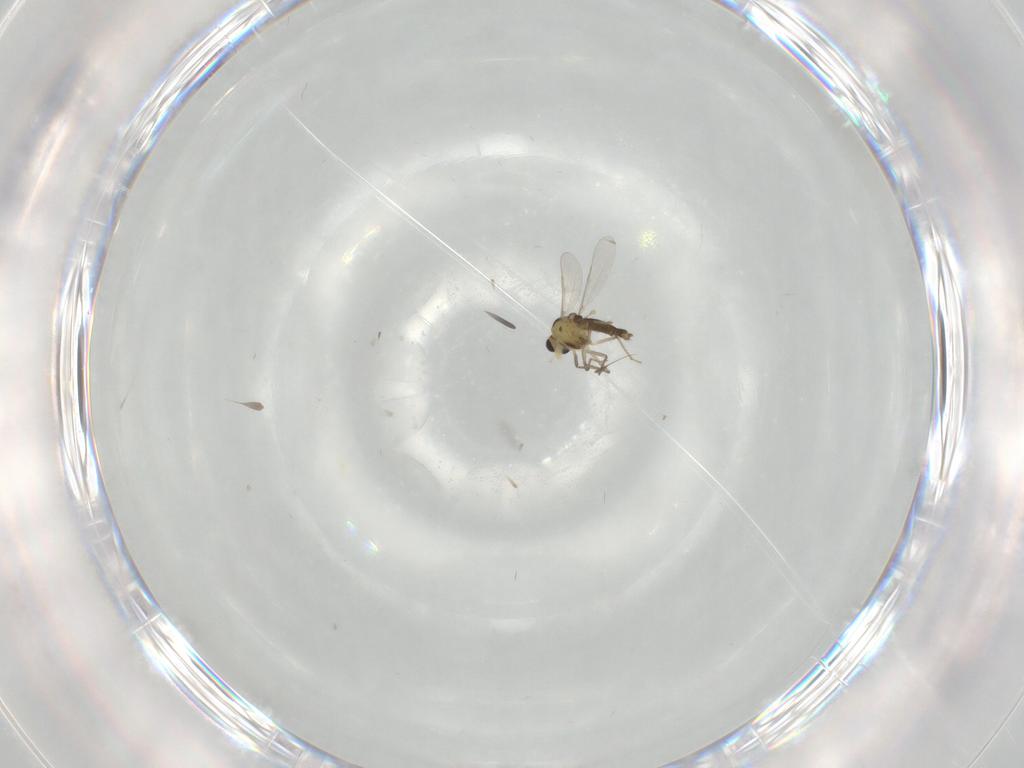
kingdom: Animalia
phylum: Arthropoda
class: Insecta
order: Diptera
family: Chironomidae
